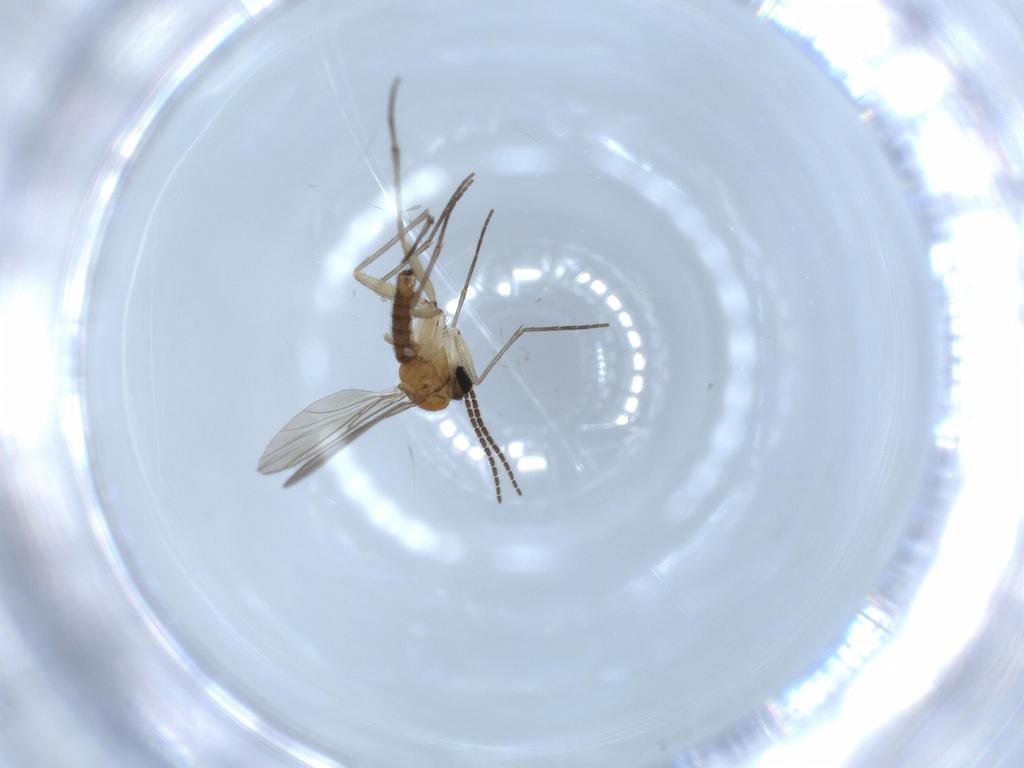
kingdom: Animalia
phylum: Arthropoda
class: Insecta
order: Diptera
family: Sciaridae
